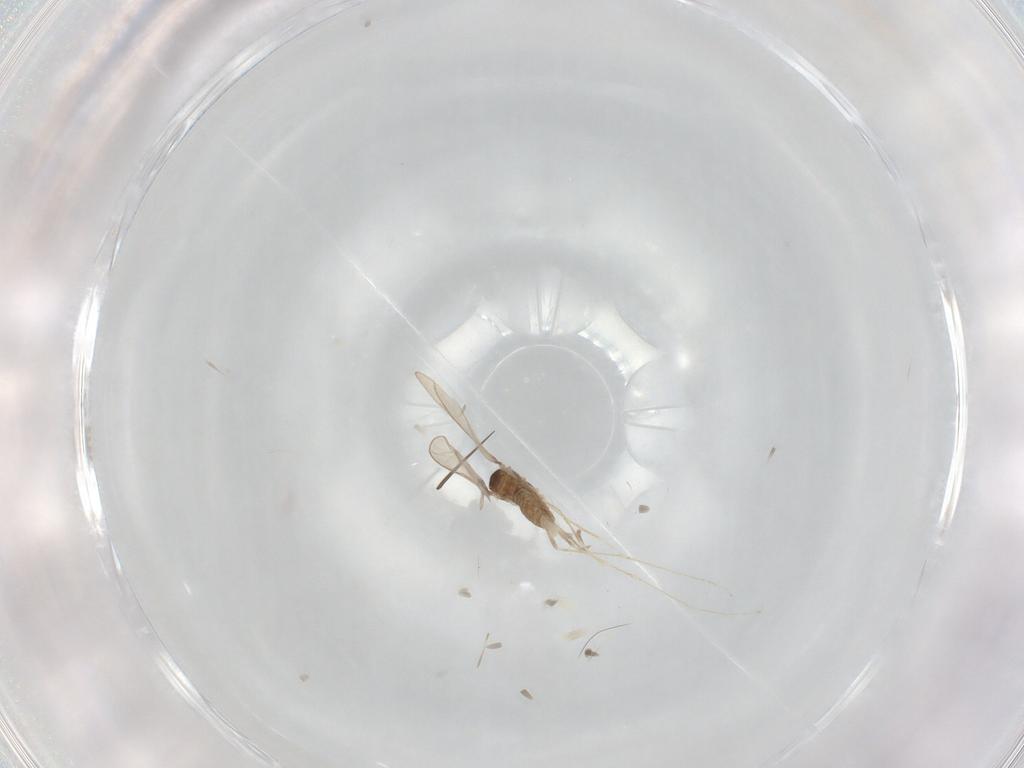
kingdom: Animalia
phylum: Arthropoda
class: Insecta
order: Diptera
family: Cecidomyiidae
